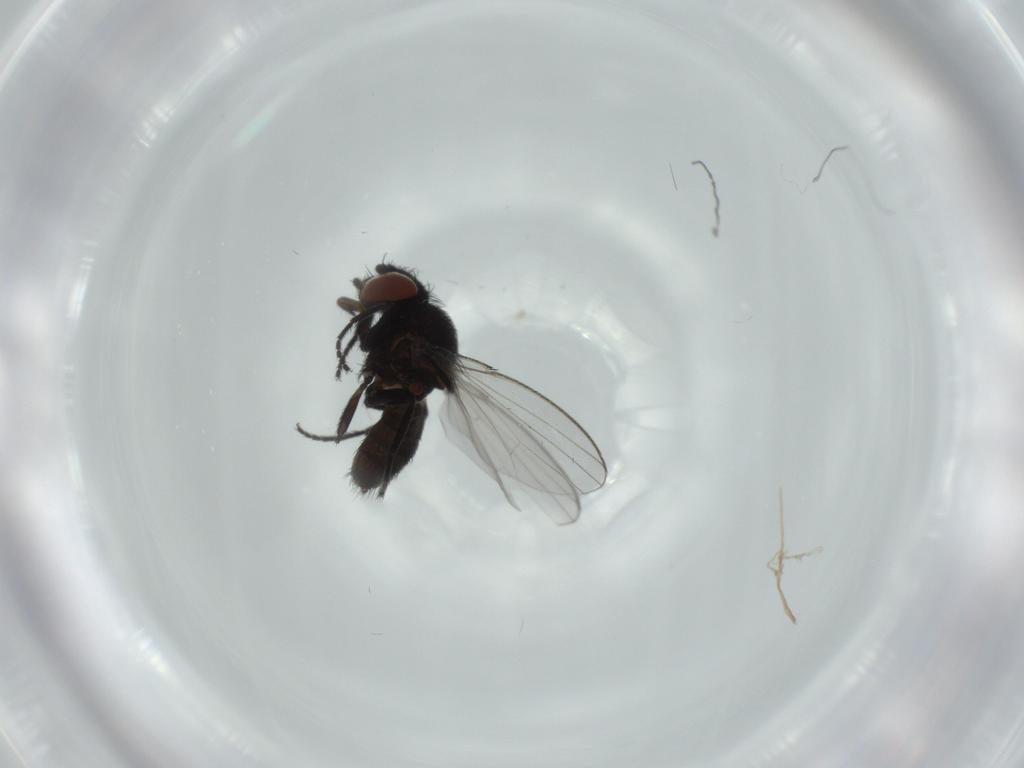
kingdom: Animalia
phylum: Arthropoda
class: Insecta
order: Diptera
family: Milichiidae
